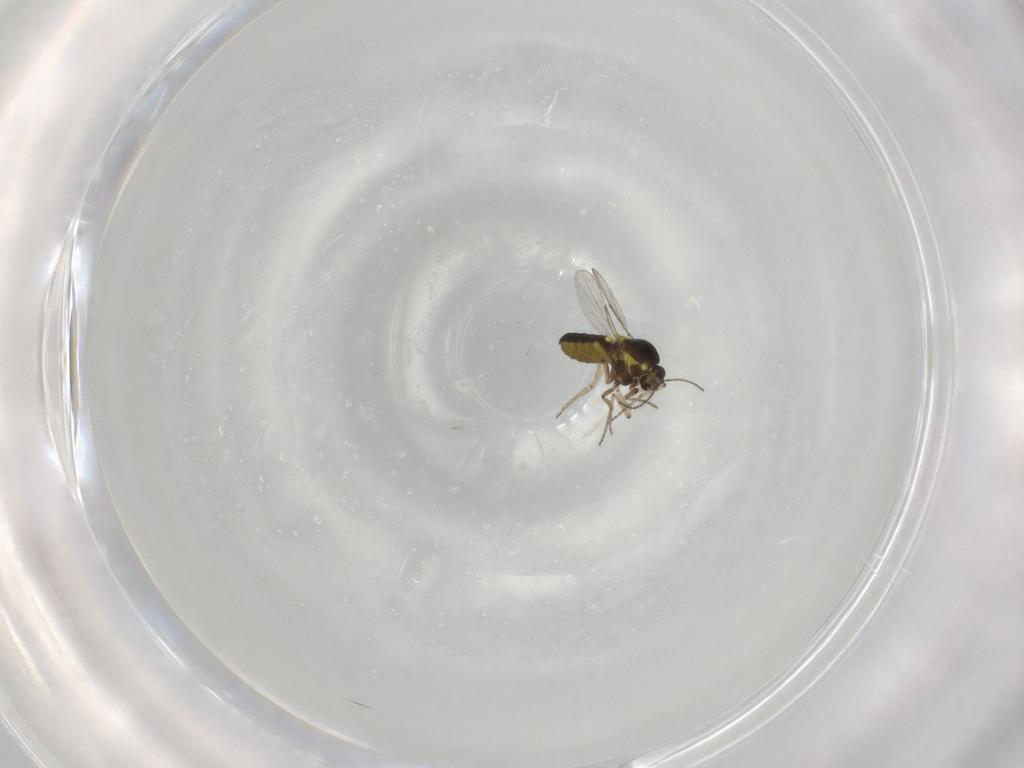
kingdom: Animalia
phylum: Arthropoda
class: Insecta
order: Diptera
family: Ceratopogonidae
